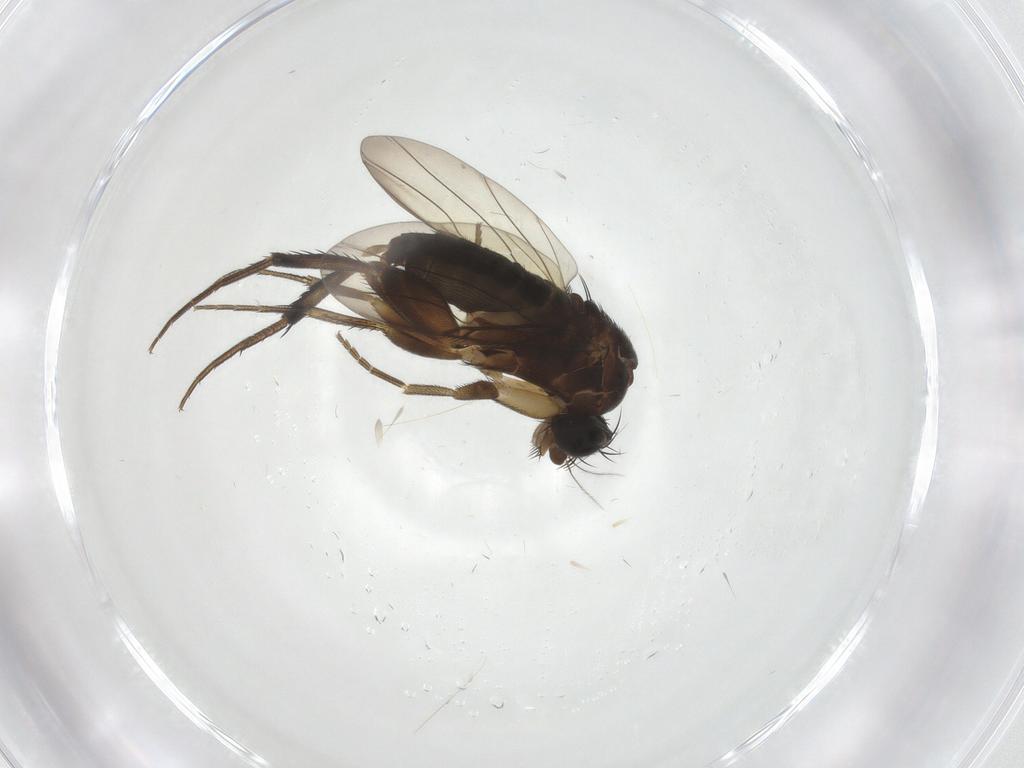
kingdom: Animalia
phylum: Arthropoda
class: Insecta
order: Diptera
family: Phoridae
